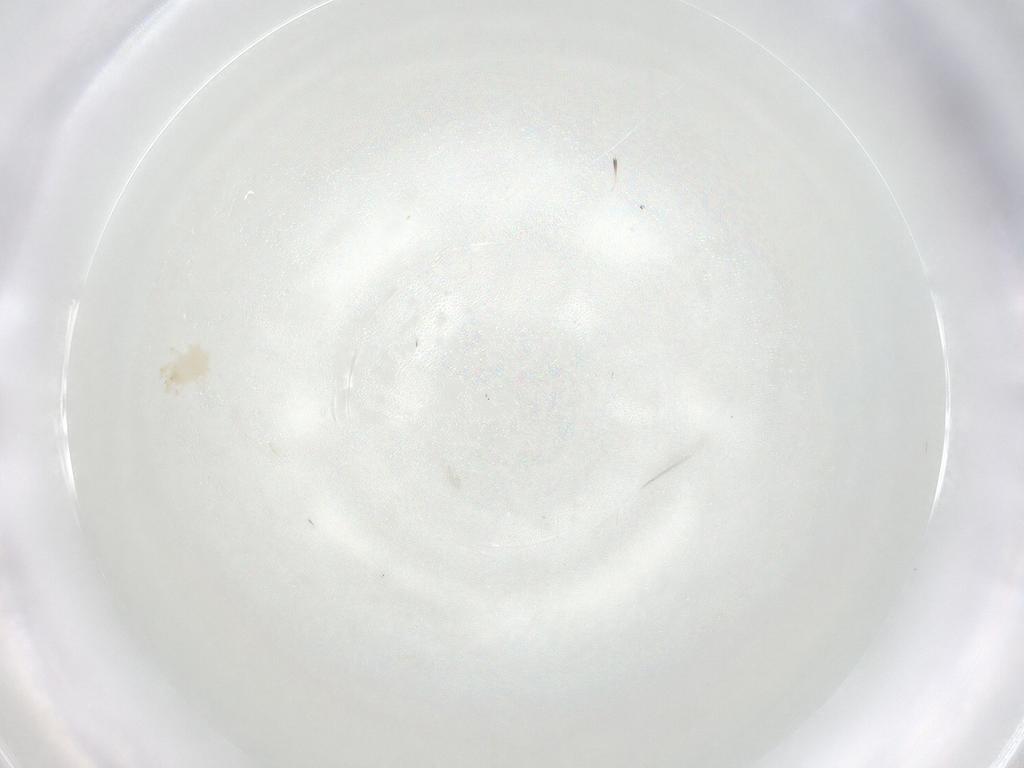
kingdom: Animalia
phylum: Arthropoda
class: Arachnida
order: Mesostigmata
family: Phytoseiidae
